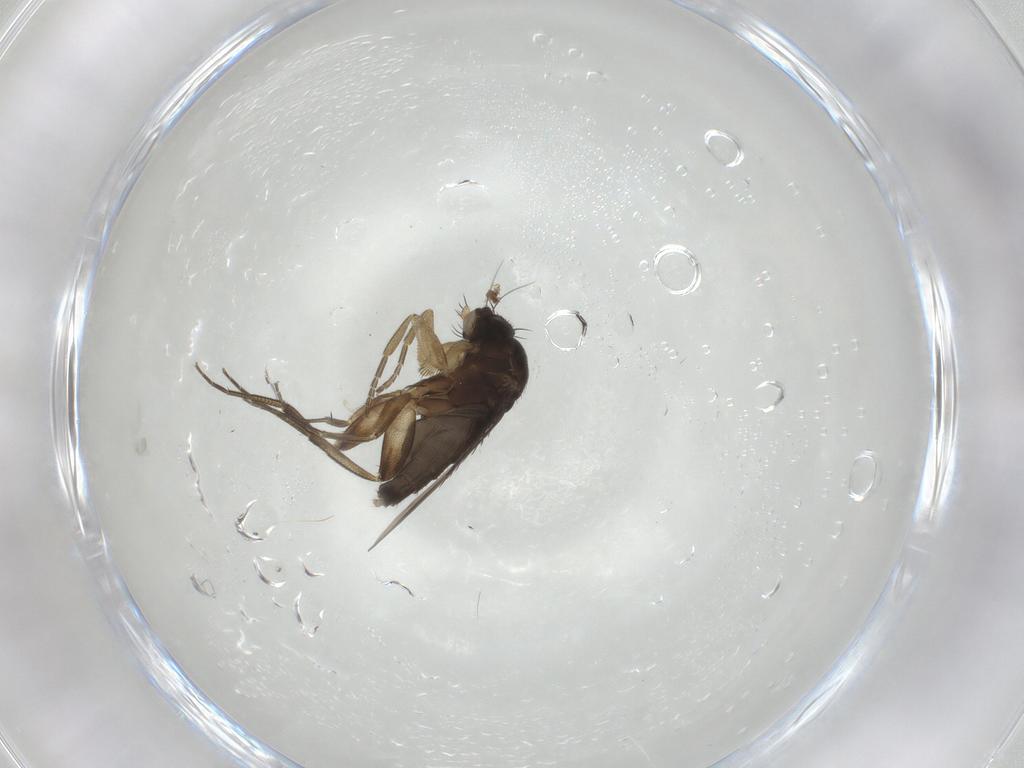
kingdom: Animalia
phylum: Arthropoda
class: Insecta
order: Diptera
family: Phoridae
